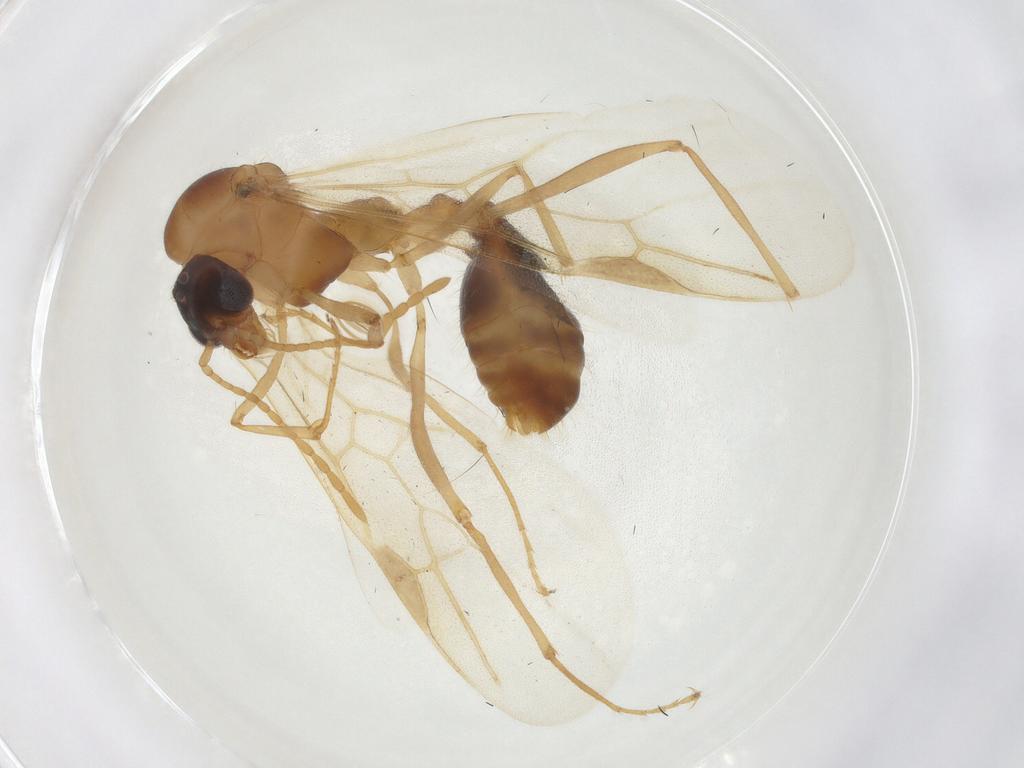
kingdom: Animalia
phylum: Arthropoda
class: Insecta
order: Hymenoptera
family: Formicidae
